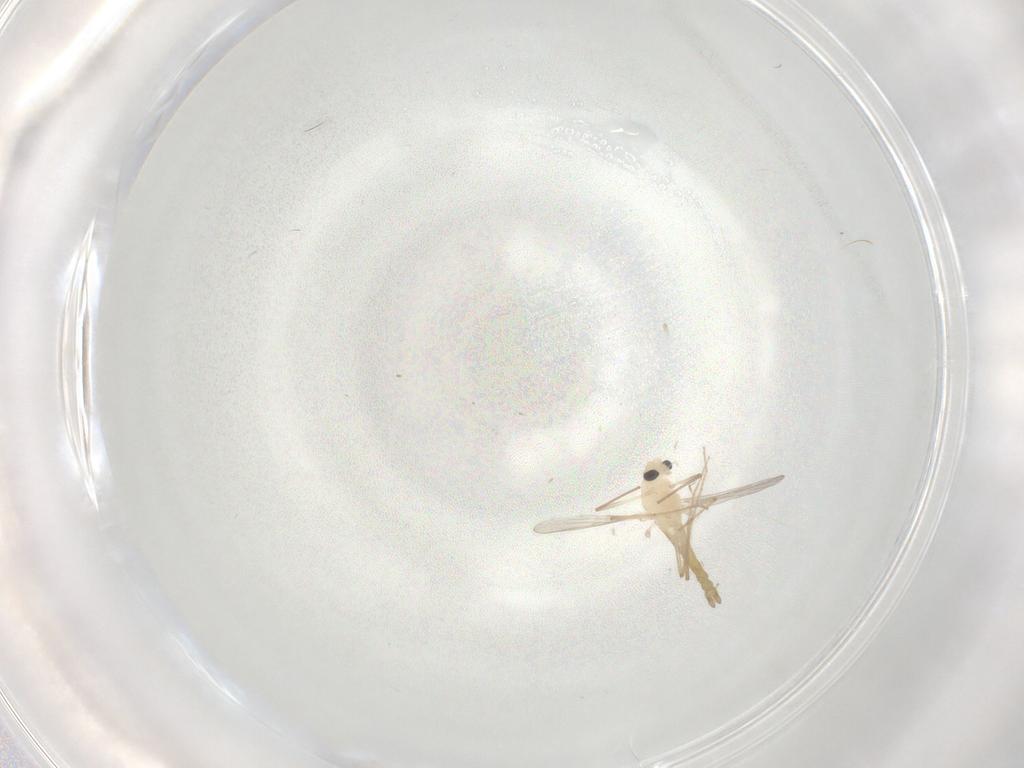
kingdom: Animalia
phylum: Arthropoda
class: Insecta
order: Diptera
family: Chironomidae
